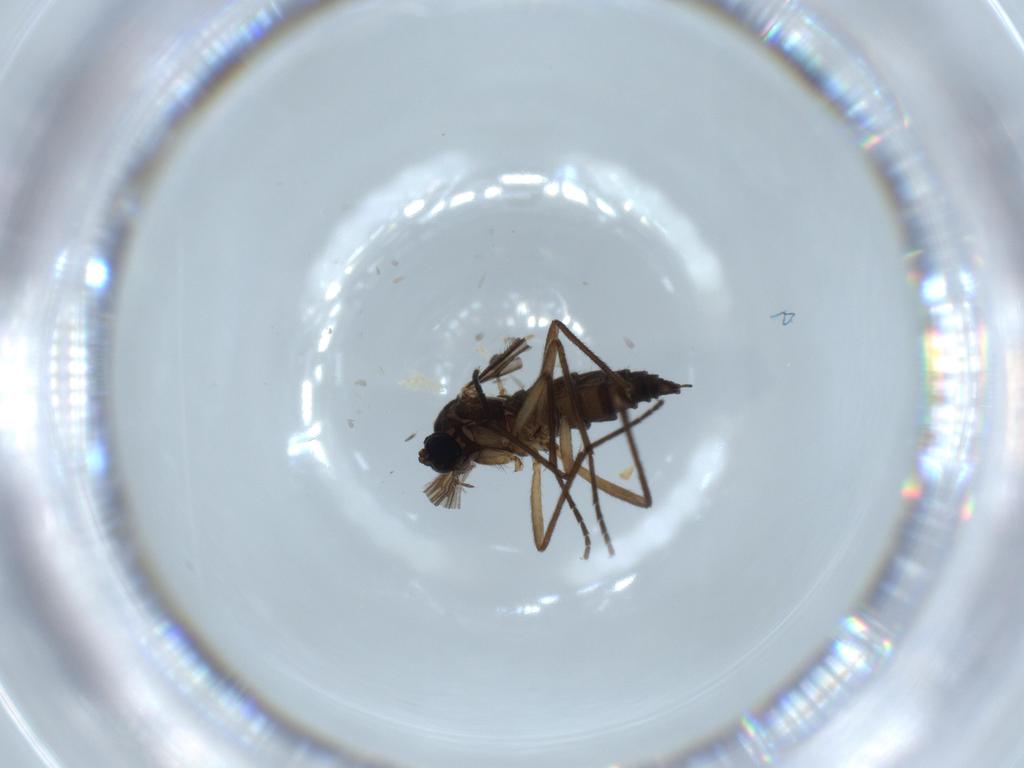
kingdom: Animalia
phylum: Arthropoda
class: Insecta
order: Diptera
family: Sciaridae
